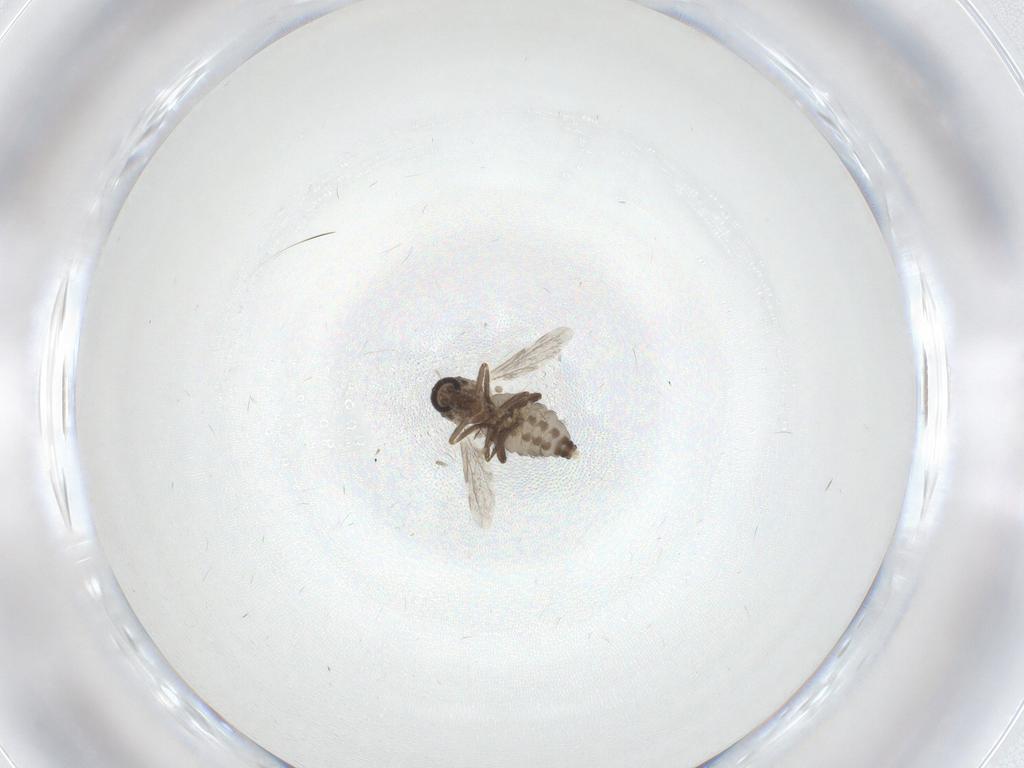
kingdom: Animalia
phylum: Arthropoda
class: Insecta
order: Diptera
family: Ceratopogonidae
